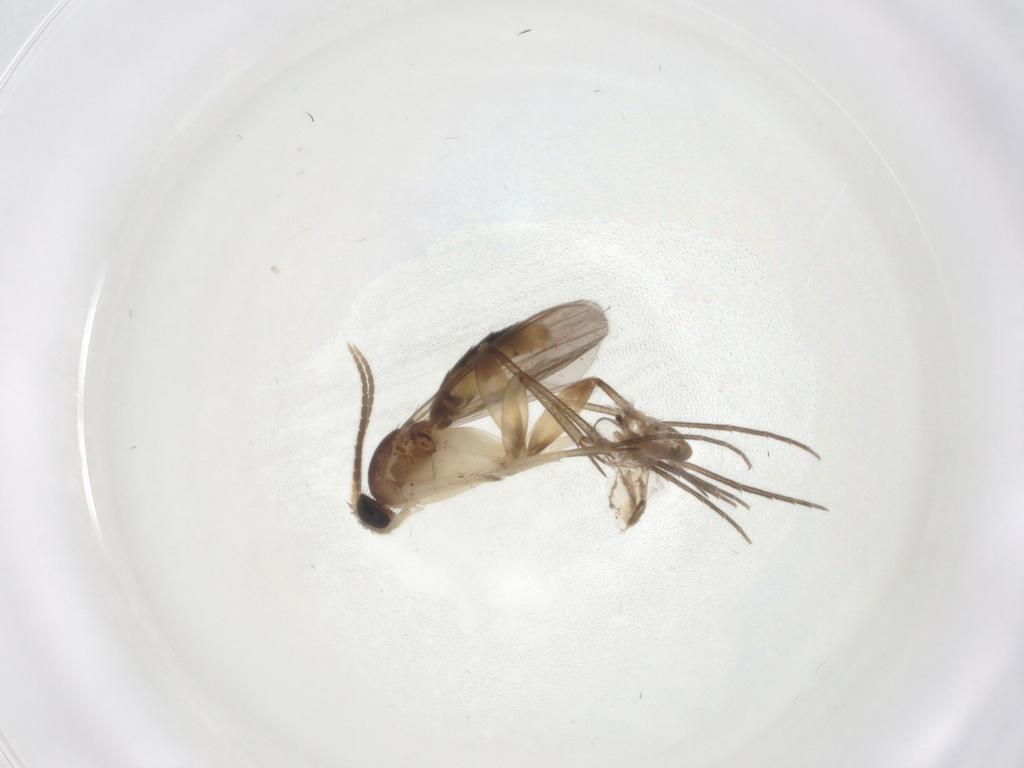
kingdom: Animalia
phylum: Arthropoda
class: Insecta
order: Diptera
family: Mycetophilidae
